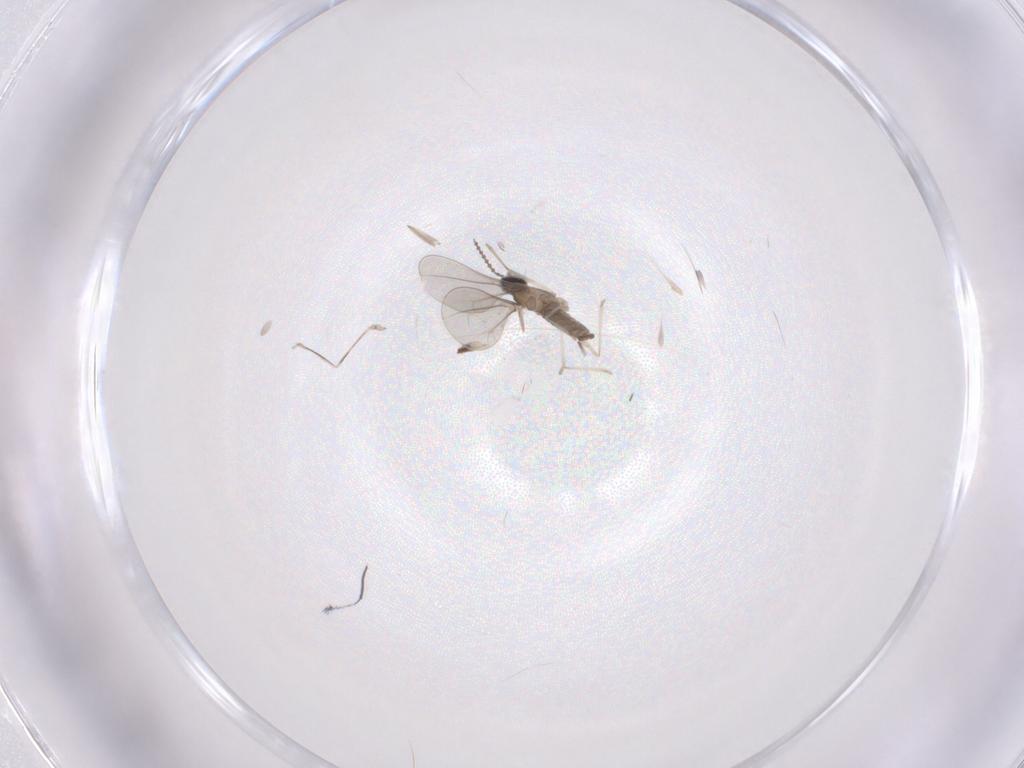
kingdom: Animalia
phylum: Arthropoda
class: Insecta
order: Diptera
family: Cecidomyiidae
